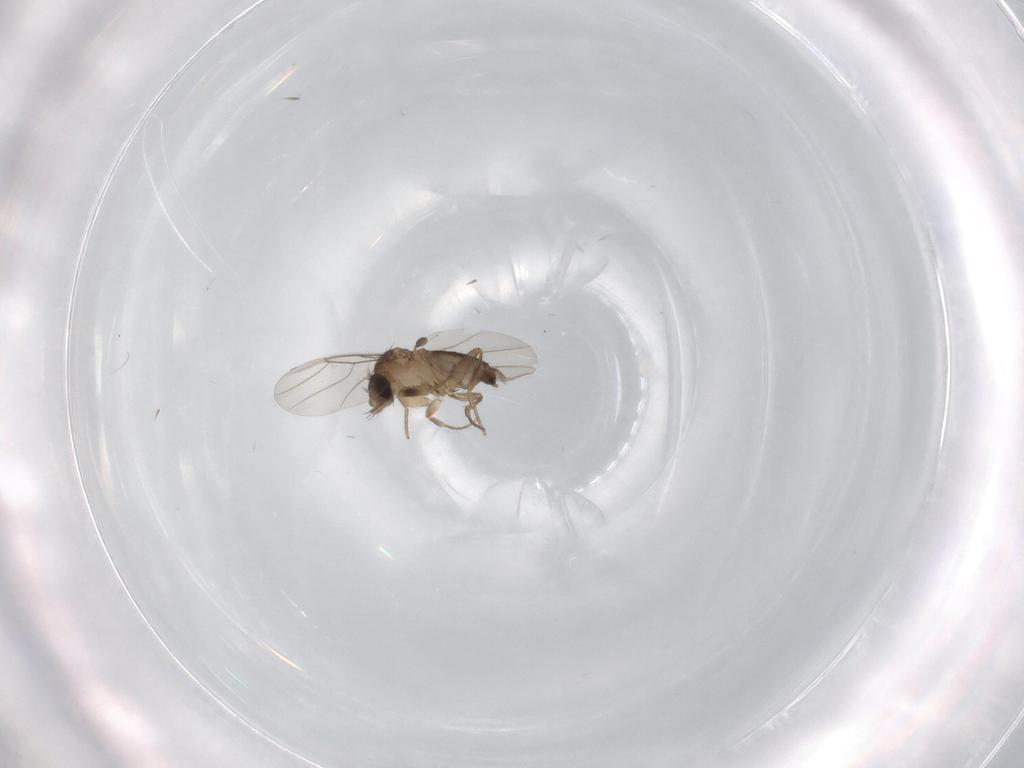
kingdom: Animalia
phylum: Arthropoda
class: Insecta
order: Diptera
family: Phoridae
